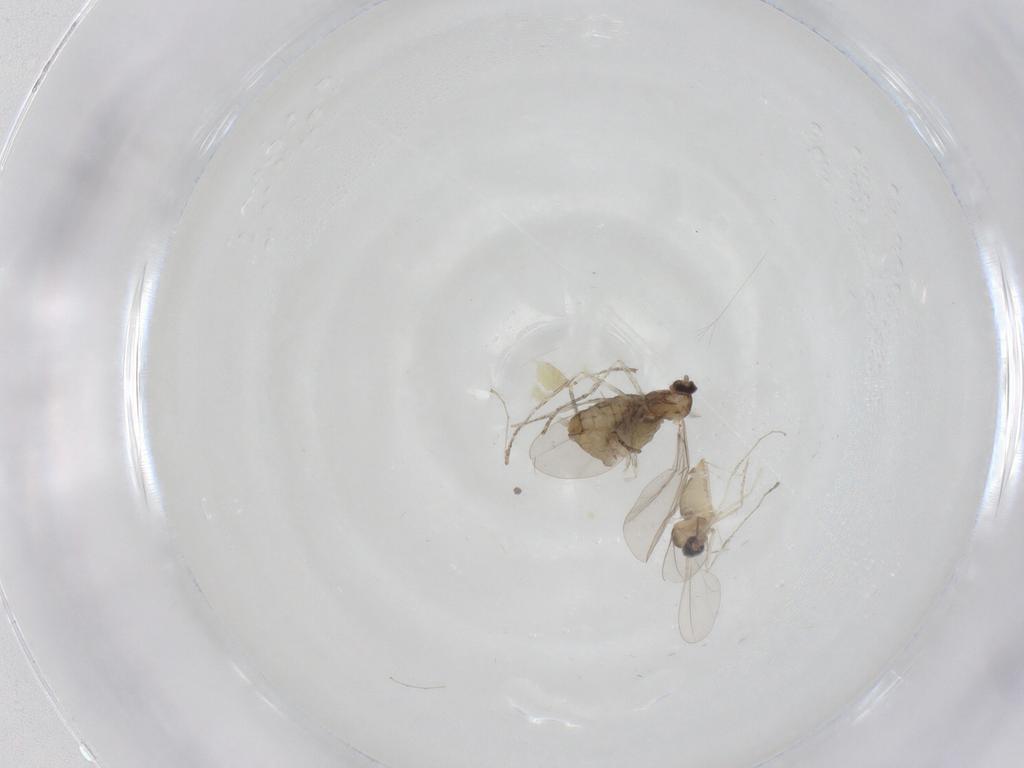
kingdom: Animalia
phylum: Arthropoda
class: Insecta
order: Diptera
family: Chironomidae
